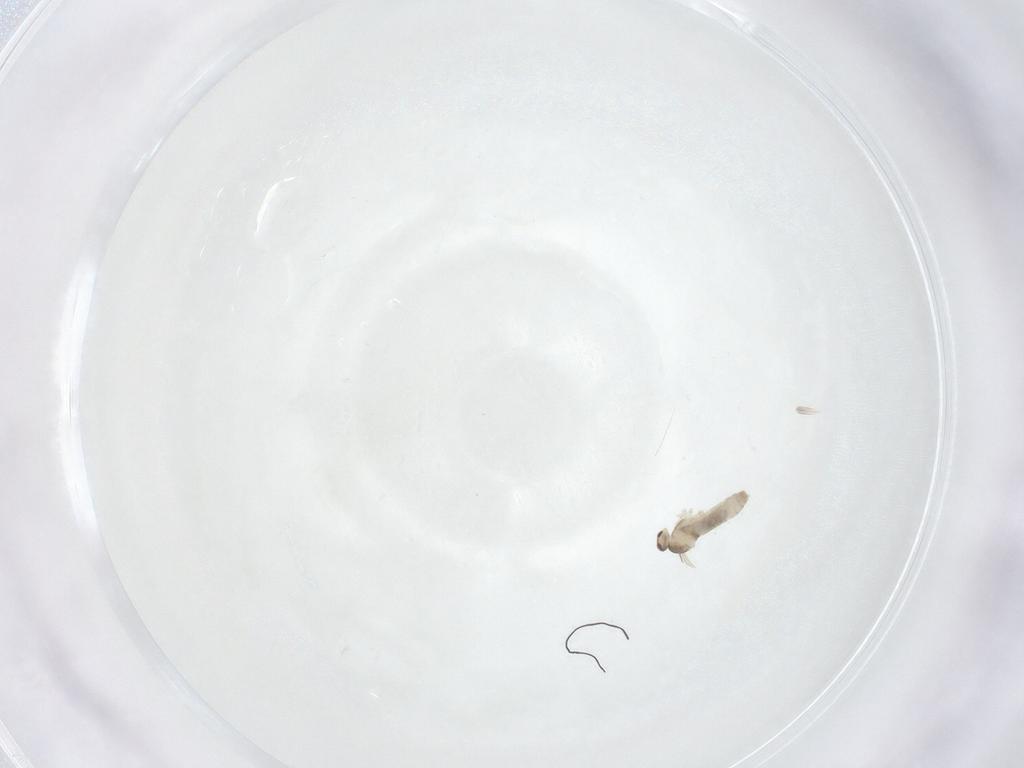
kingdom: Animalia
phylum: Arthropoda
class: Insecta
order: Diptera
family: Cecidomyiidae
